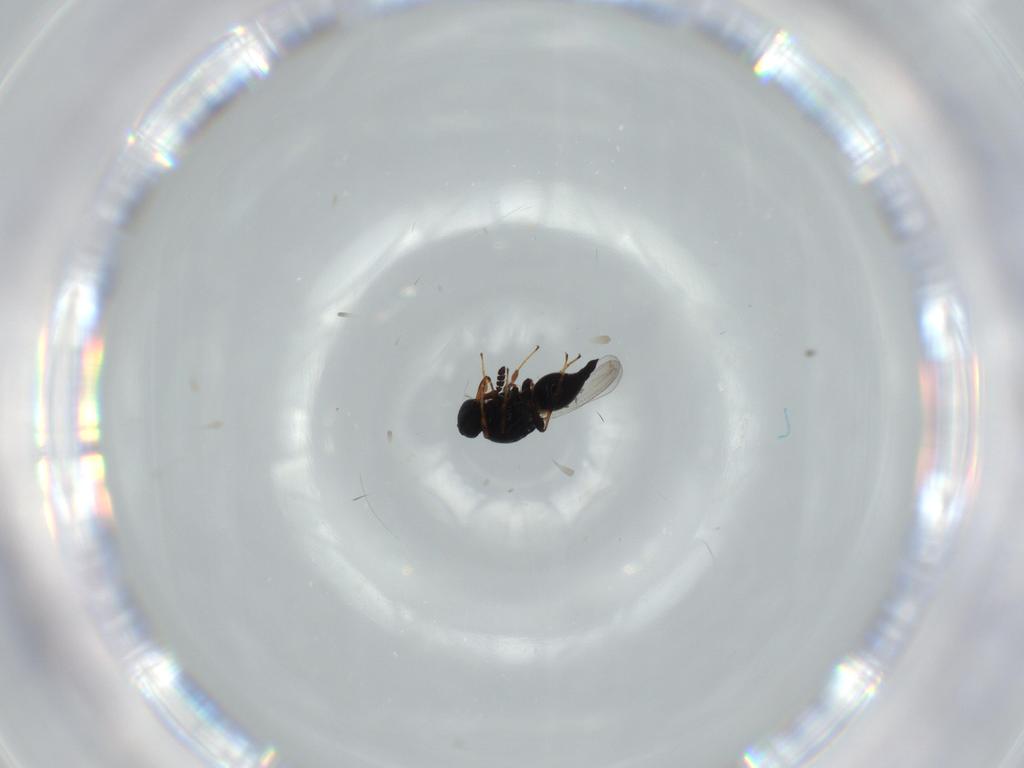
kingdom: Animalia
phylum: Arthropoda
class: Insecta
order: Hymenoptera
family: Platygastridae
